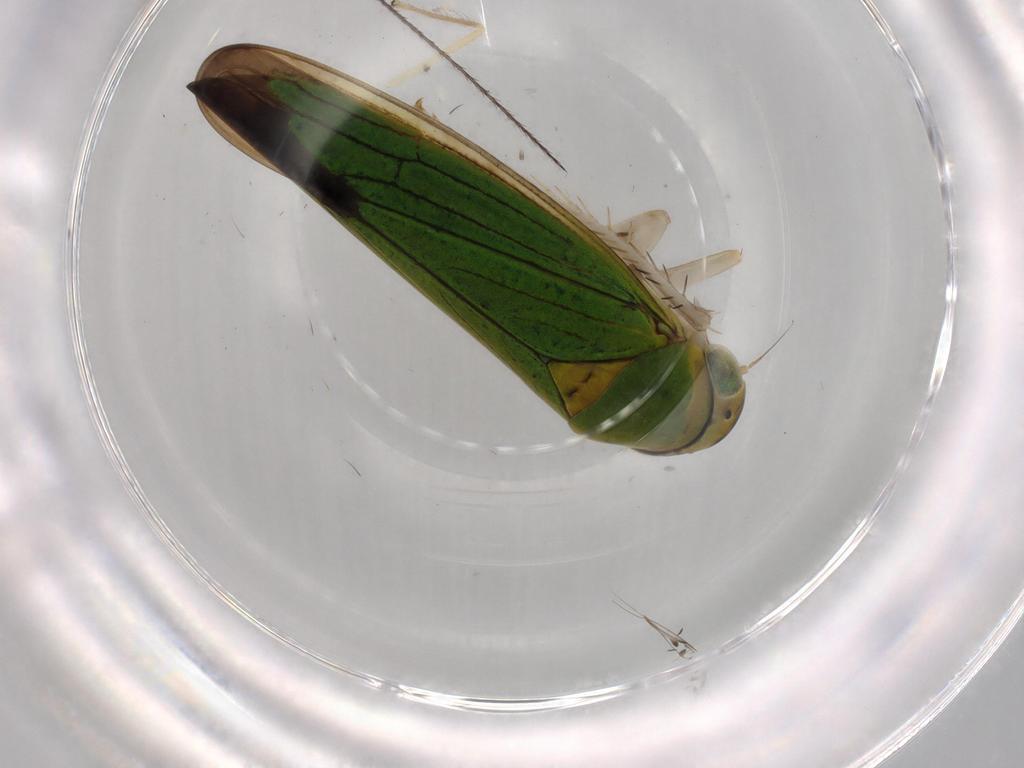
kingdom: Animalia
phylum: Arthropoda
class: Insecta
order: Hemiptera
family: Cicadellidae
